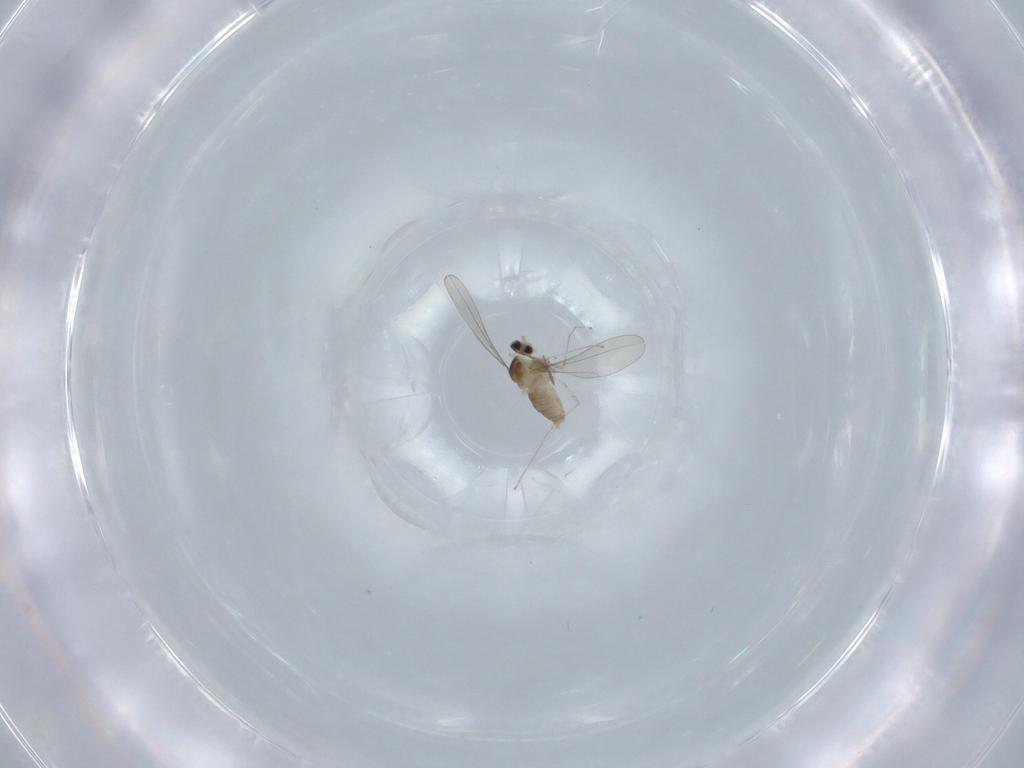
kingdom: Animalia
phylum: Arthropoda
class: Insecta
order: Diptera
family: Cecidomyiidae
